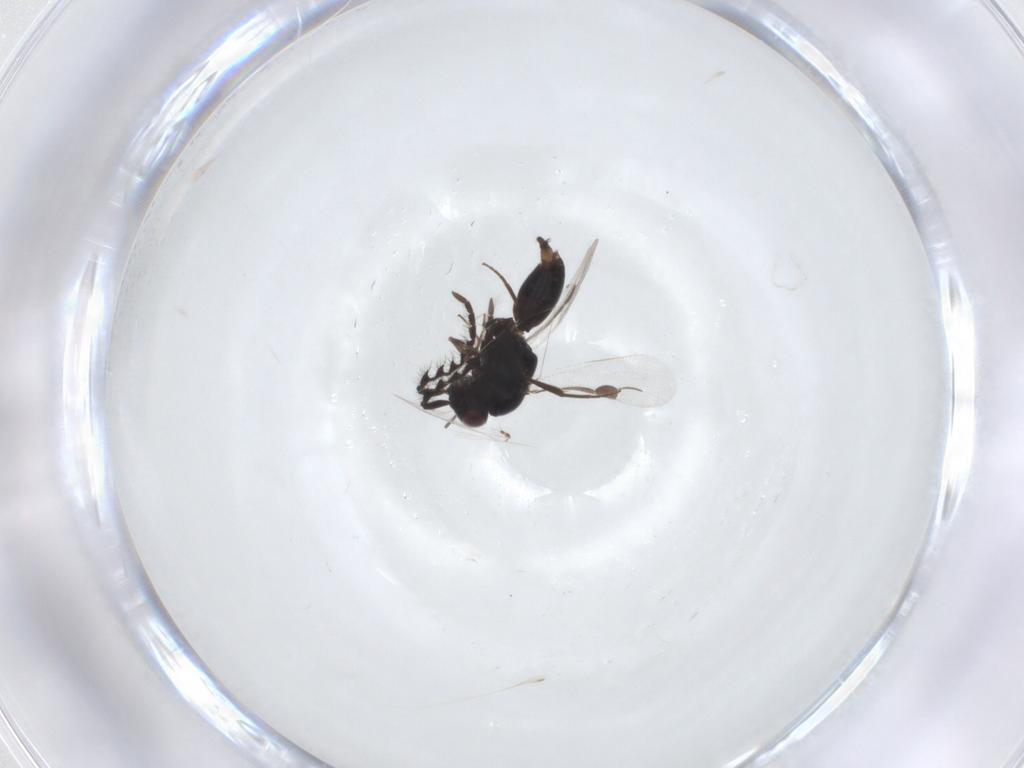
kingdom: Animalia
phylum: Arthropoda
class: Insecta
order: Hymenoptera
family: Megaspilidae
